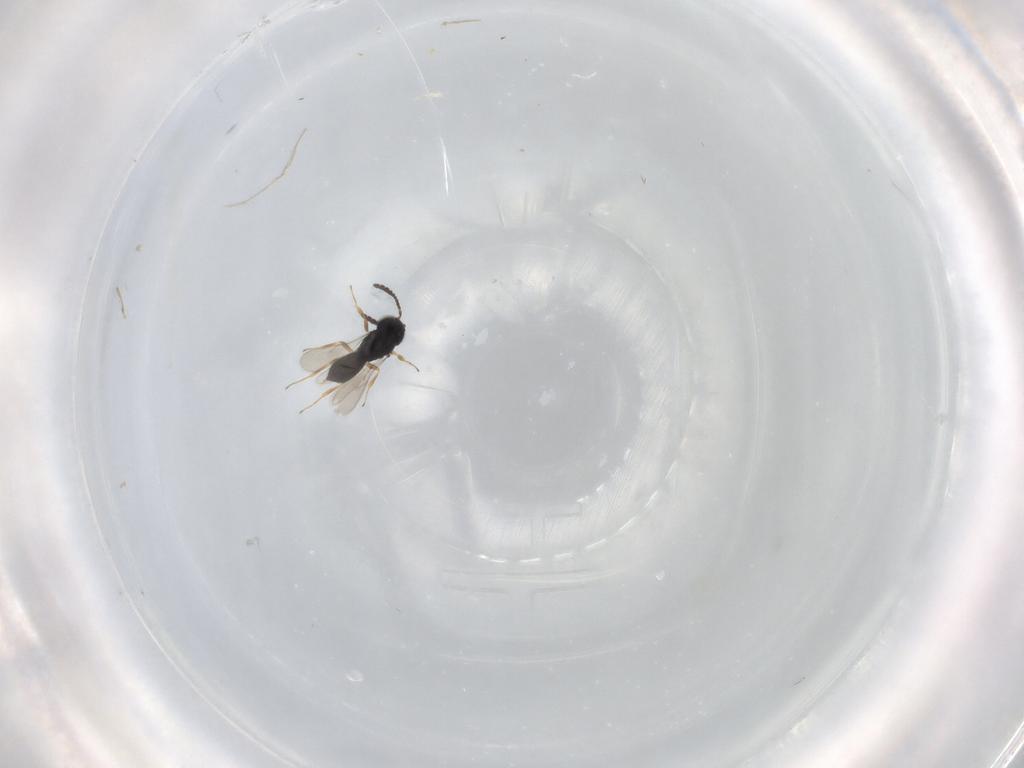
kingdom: Animalia
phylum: Arthropoda
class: Insecta
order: Hymenoptera
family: Scelionidae
